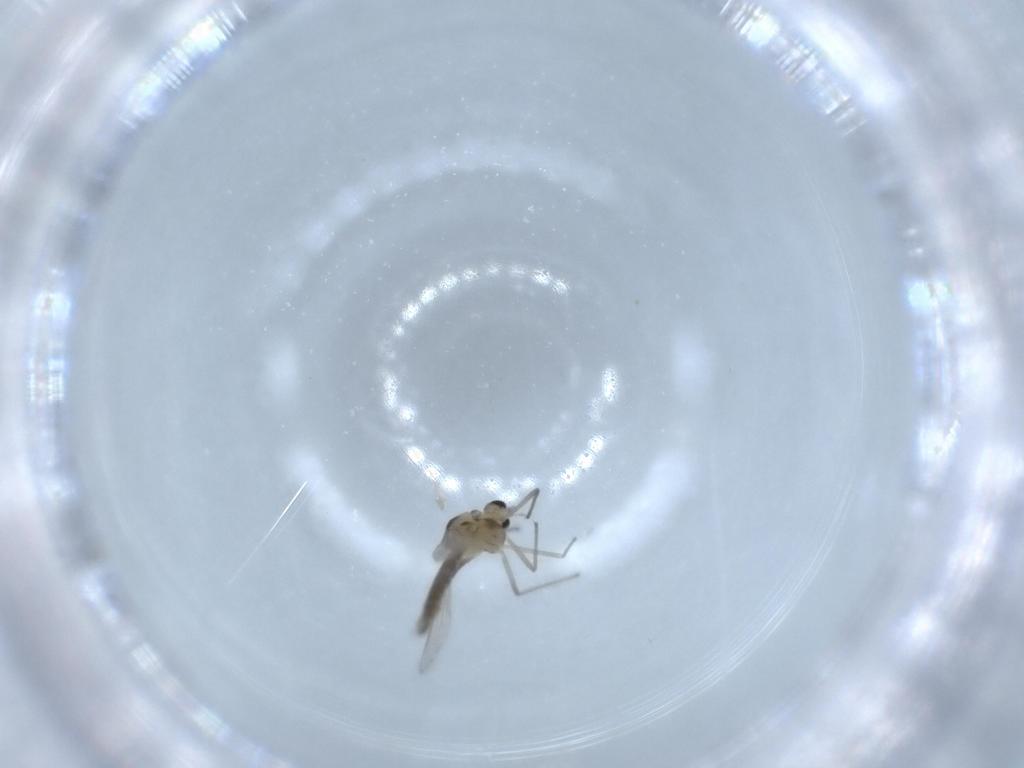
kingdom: Animalia
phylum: Arthropoda
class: Insecta
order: Diptera
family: Chironomidae
